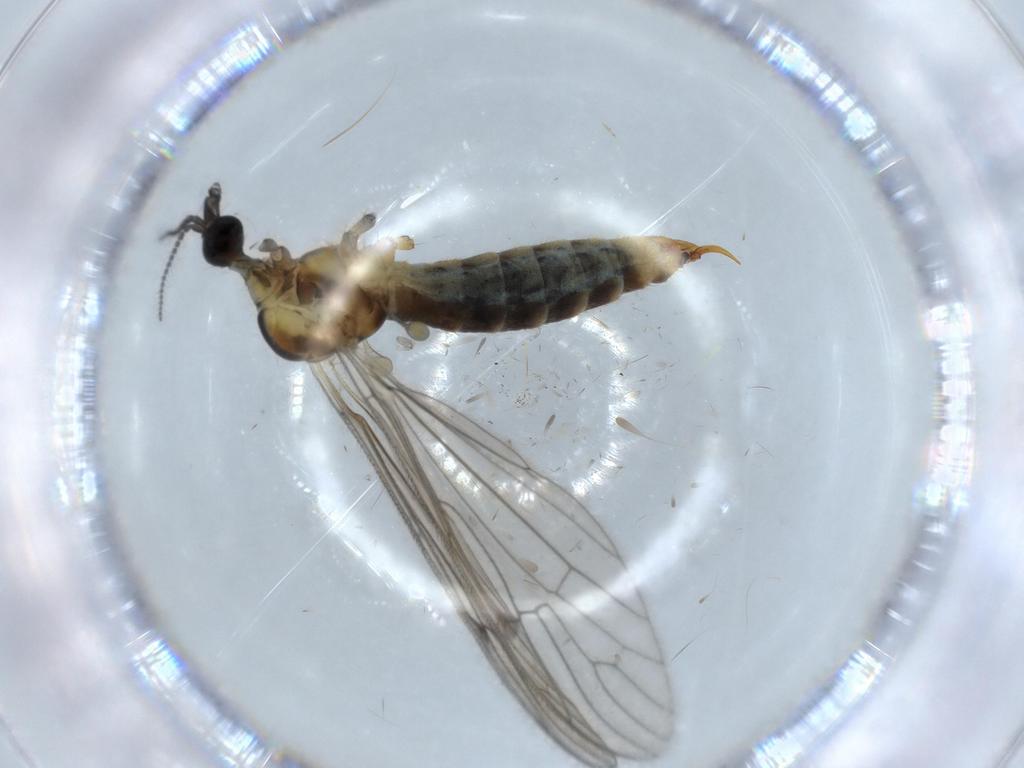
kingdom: Animalia
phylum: Arthropoda
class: Insecta
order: Diptera
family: Limoniidae
